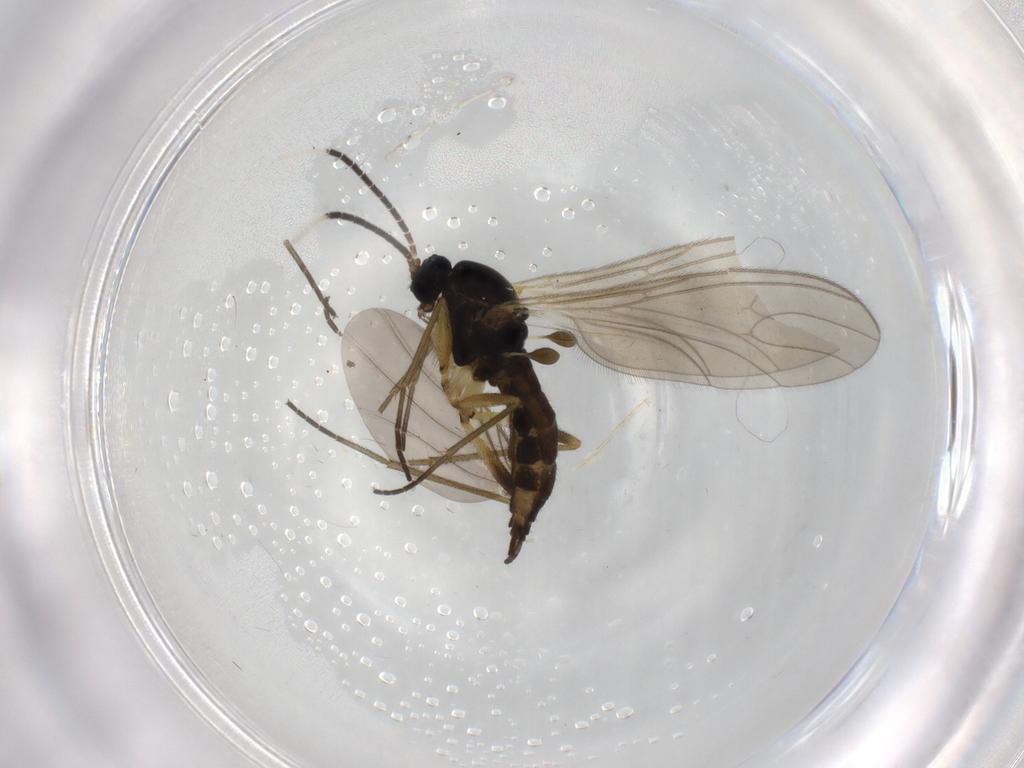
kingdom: Animalia
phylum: Arthropoda
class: Insecta
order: Diptera
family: Sciaridae
